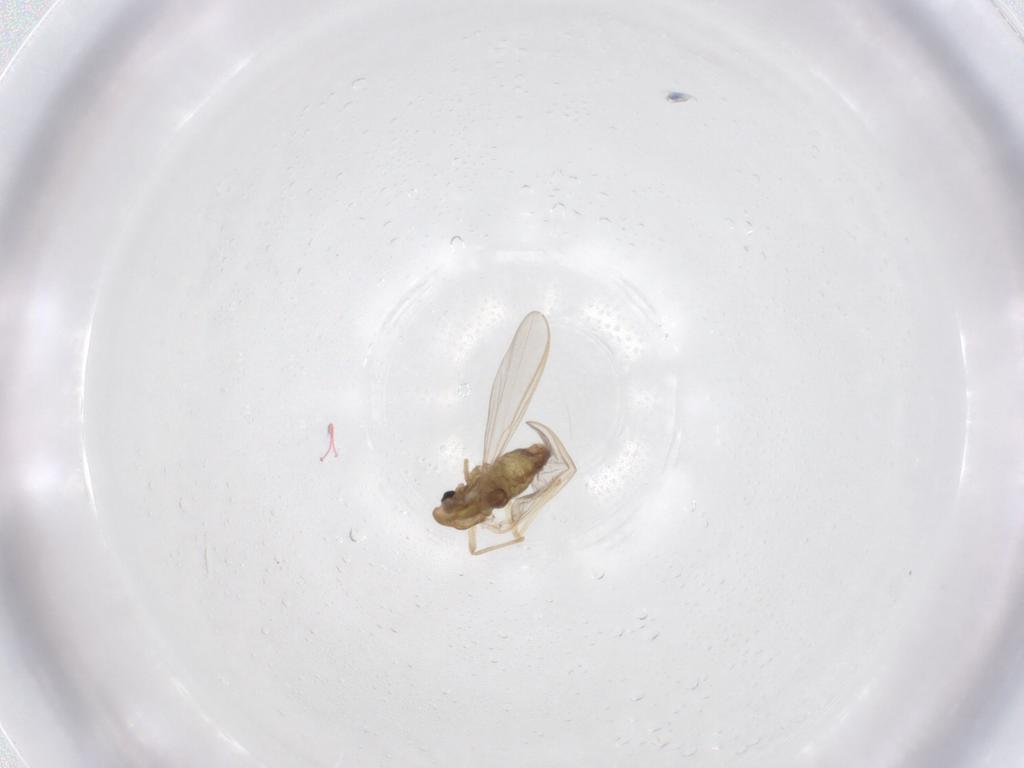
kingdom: Animalia
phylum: Arthropoda
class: Insecta
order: Diptera
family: Chironomidae
